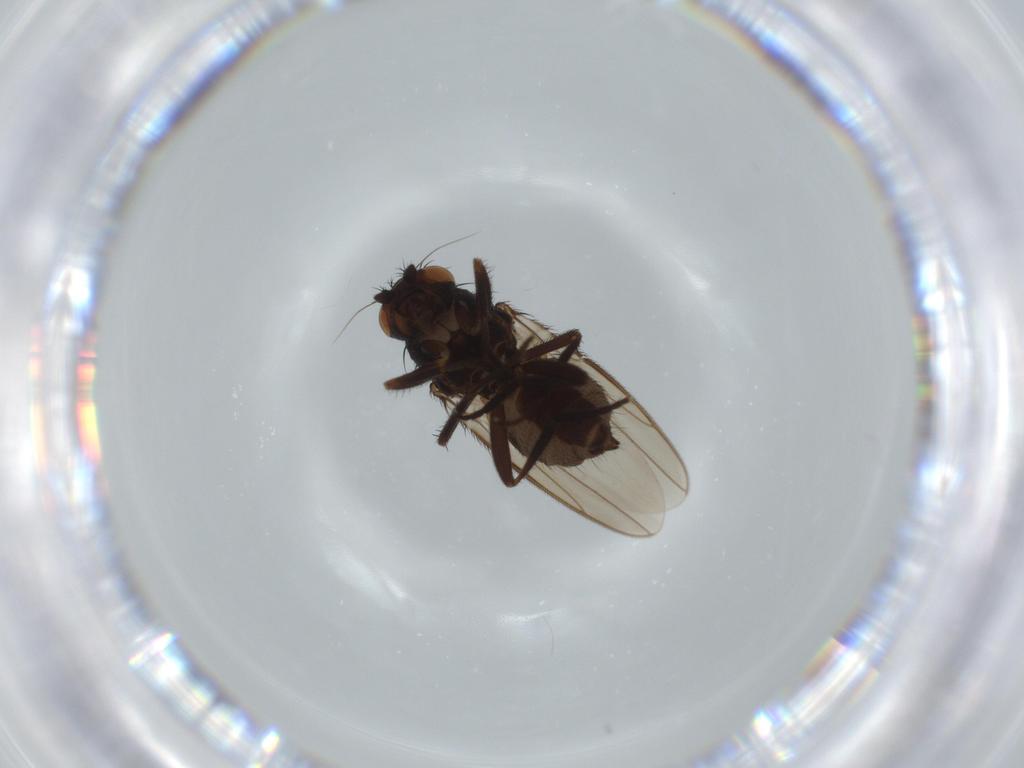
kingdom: Animalia
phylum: Arthropoda
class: Insecta
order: Diptera
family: Sphaeroceridae
